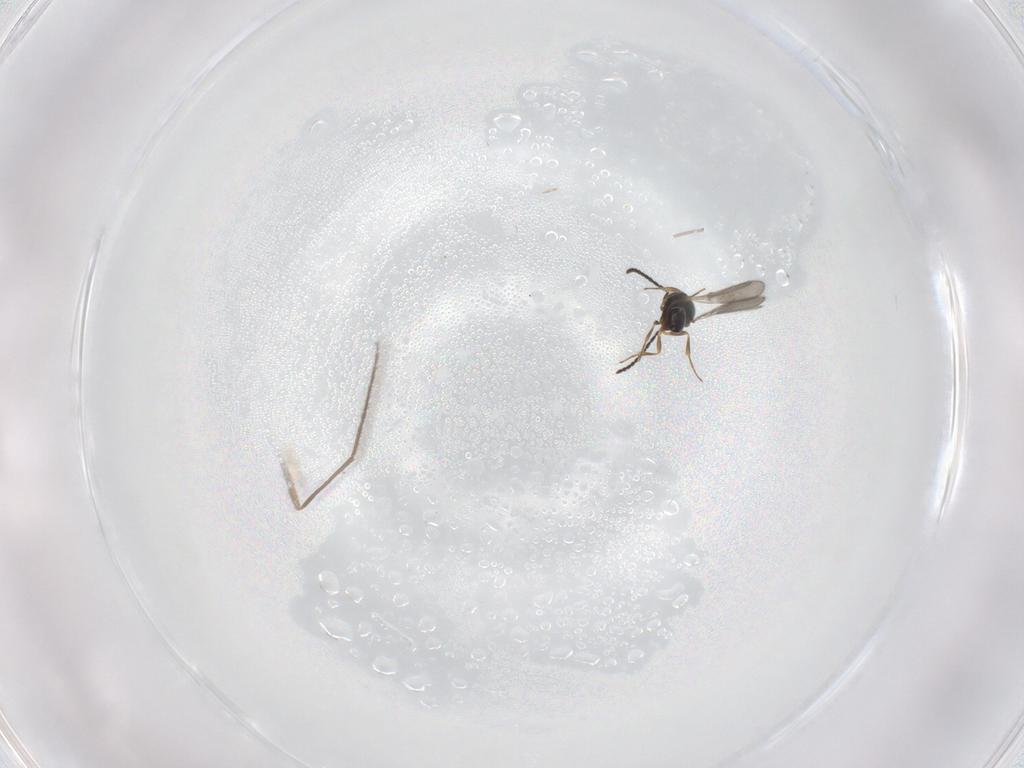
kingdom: Animalia
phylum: Arthropoda
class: Insecta
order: Hymenoptera
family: Scelionidae
